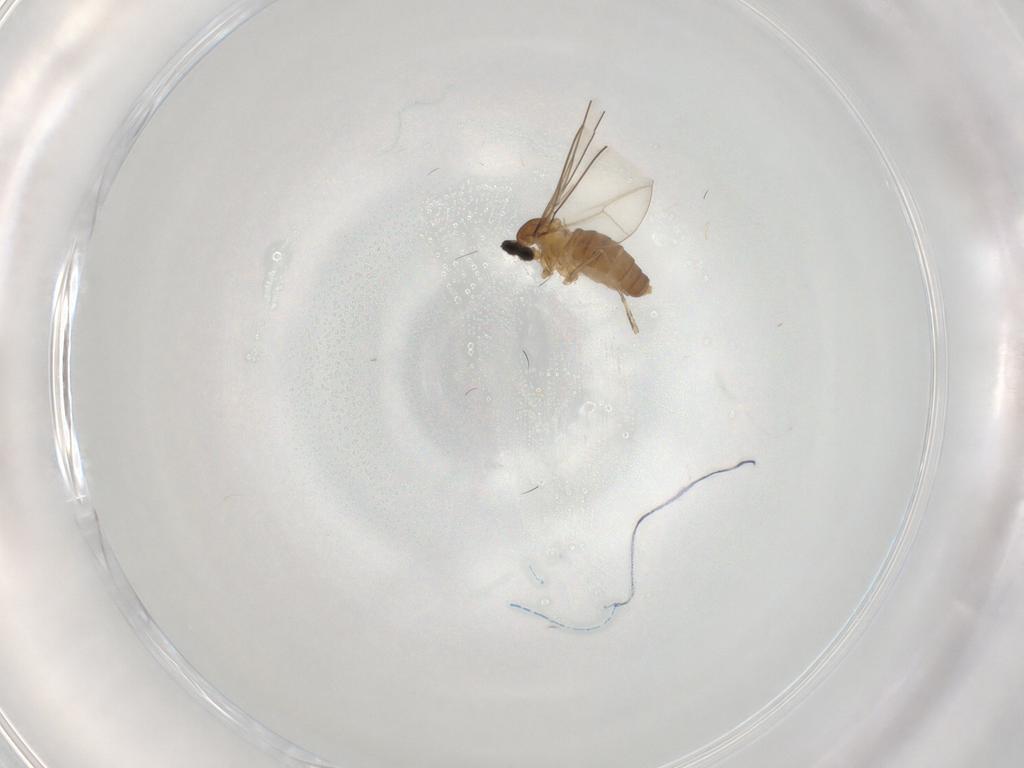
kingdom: Animalia
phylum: Arthropoda
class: Insecta
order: Diptera
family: Cecidomyiidae
